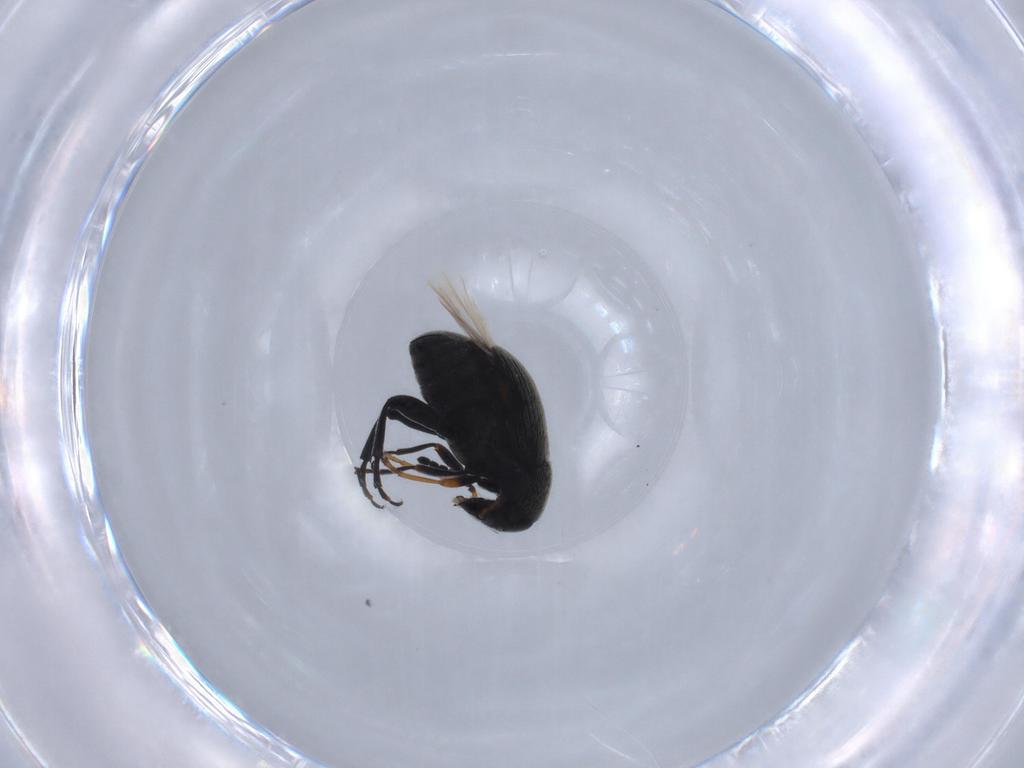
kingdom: Animalia
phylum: Arthropoda
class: Insecta
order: Coleoptera
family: Chrysomelidae
